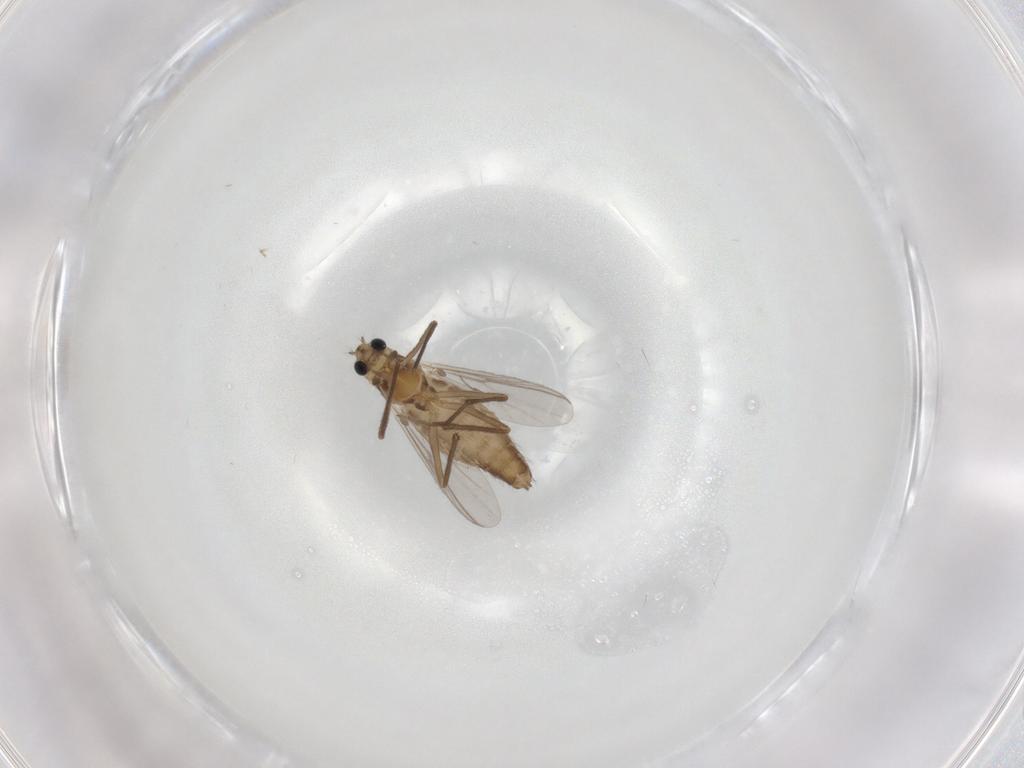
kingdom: Animalia
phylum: Arthropoda
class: Insecta
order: Diptera
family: Chironomidae
